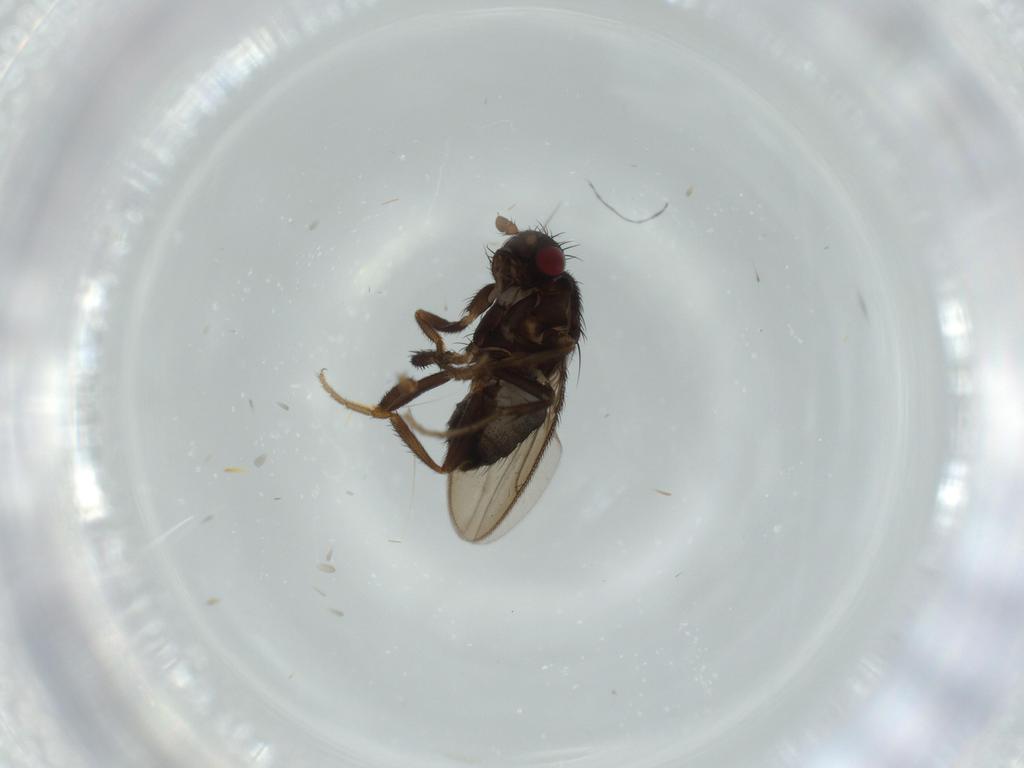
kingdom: Animalia
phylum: Arthropoda
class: Insecta
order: Diptera
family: Sphaeroceridae
